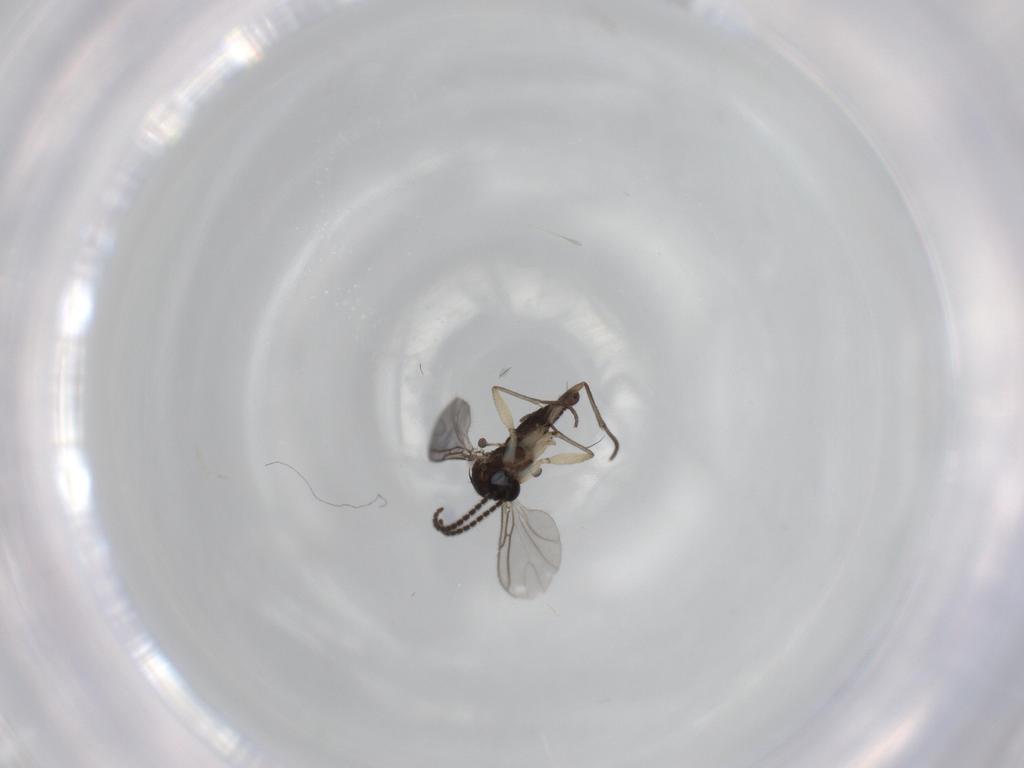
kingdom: Animalia
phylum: Arthropoda
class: Insecta
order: Diptera
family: Sciaridae
